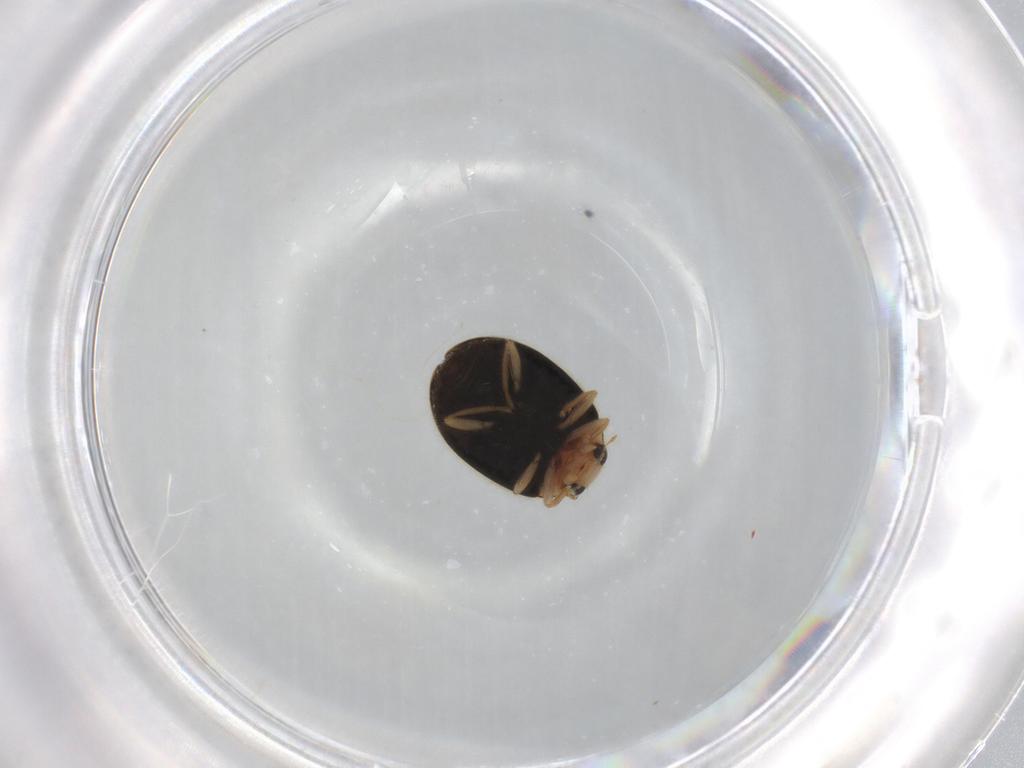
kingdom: Animalia
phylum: Arthropoda
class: Insecta
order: Coleoptera
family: Coccinellidae
